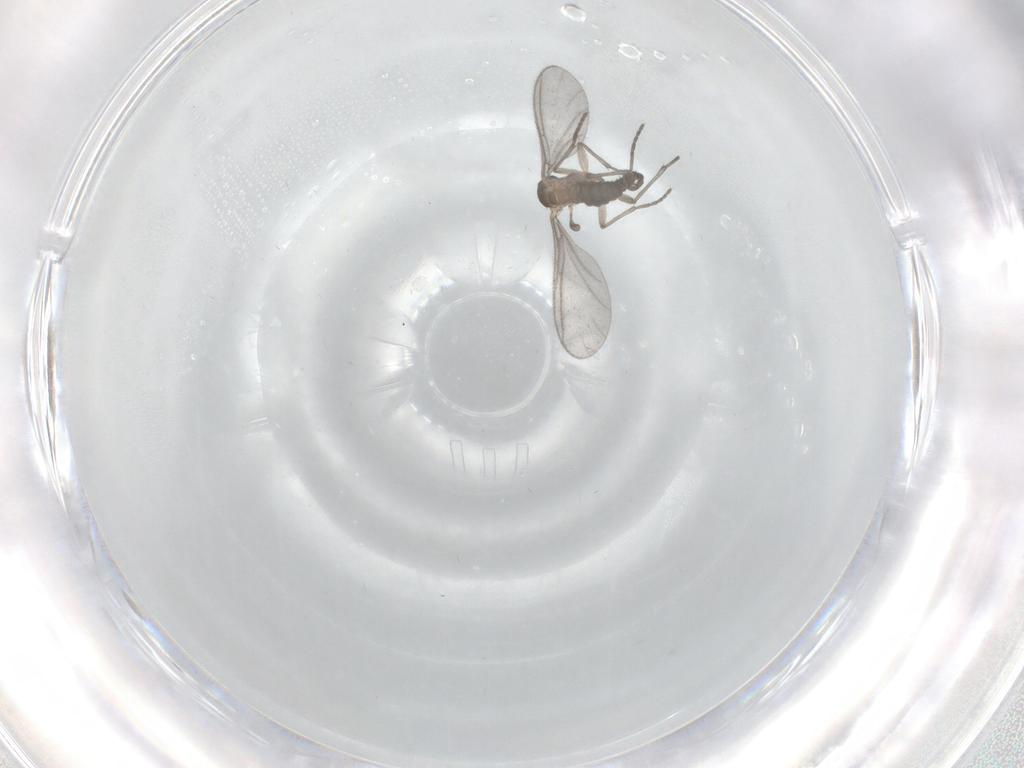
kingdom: Animalia
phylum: Arthropoda
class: Insecta
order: Diptera
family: Sciaridae
